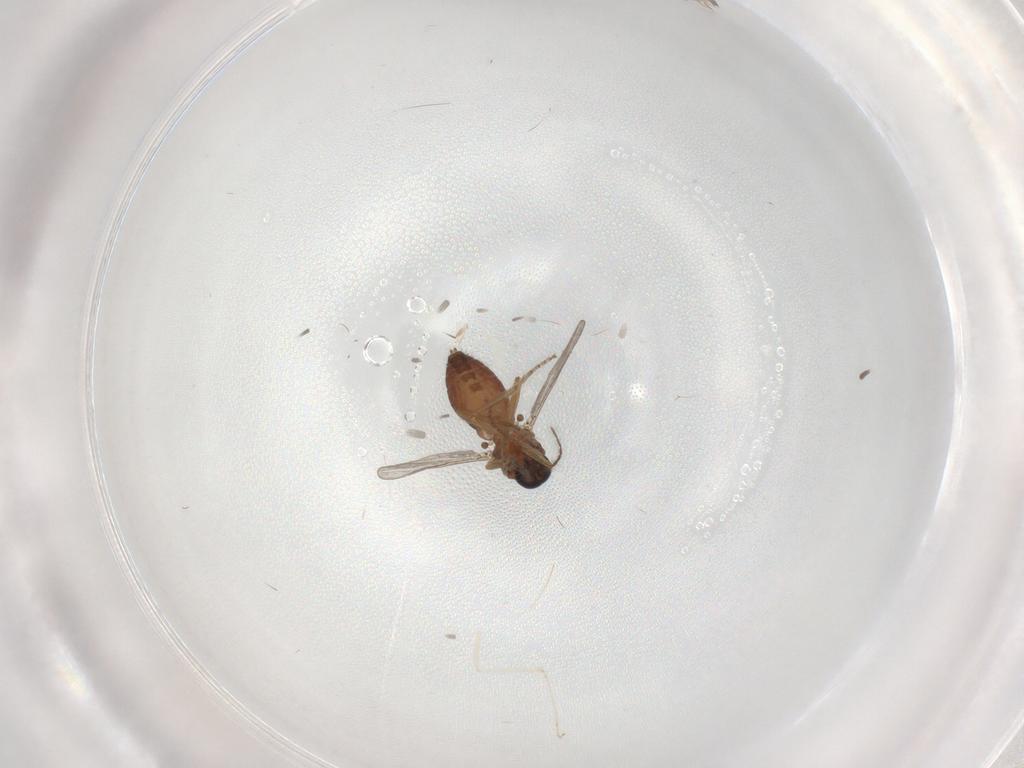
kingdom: Animalia
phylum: Arthropoda
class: Insecta
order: Diptera
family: Ceratopogonidae
